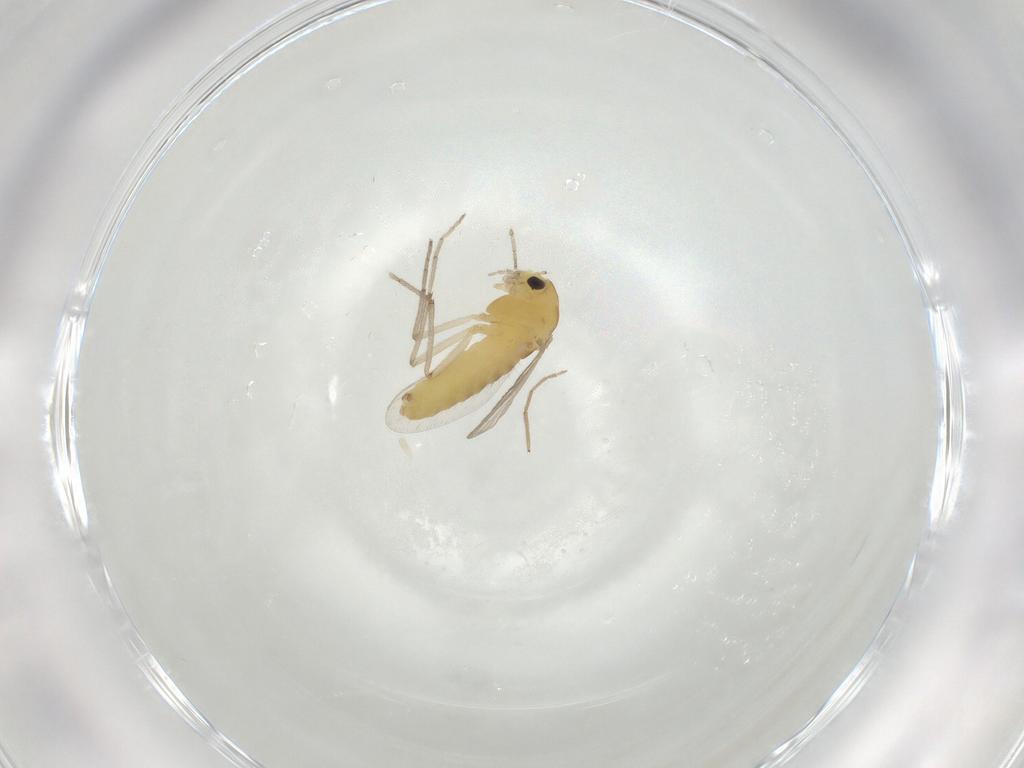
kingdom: Animalia
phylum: Arthropoda
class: Insecta
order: Diptera
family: Chironomidae
